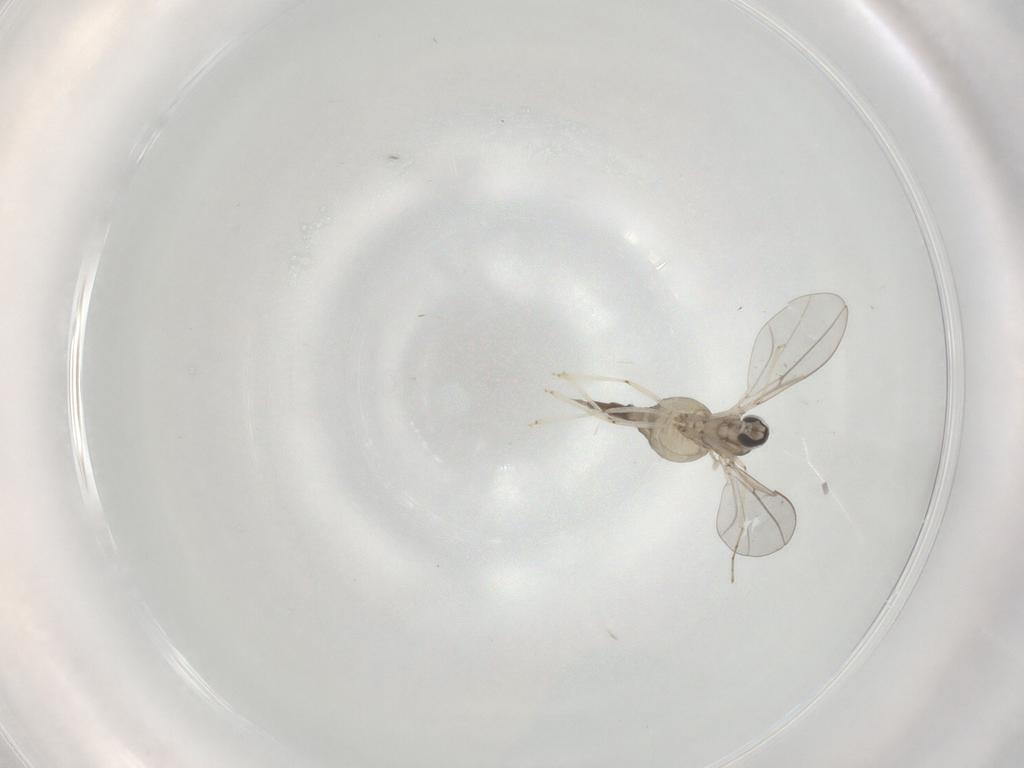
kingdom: Animalia
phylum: Arthropoda
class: Insecta
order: Diptera
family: Cecidomyiidae
